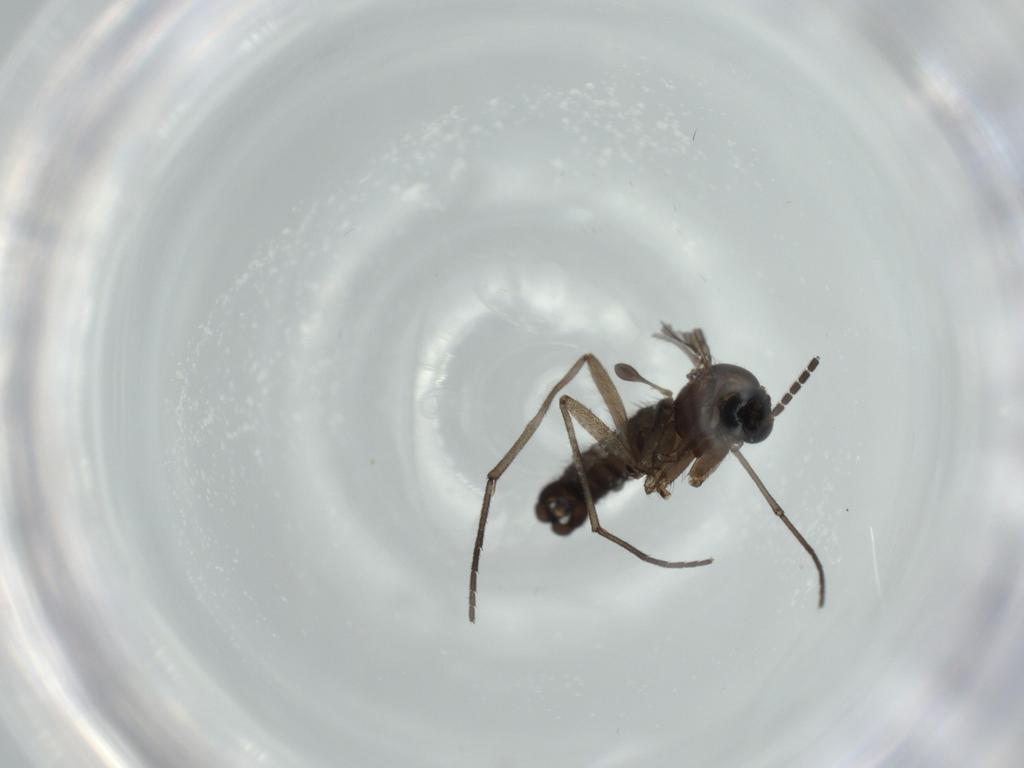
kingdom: Animalia
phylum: Arthropoda
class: Insecta
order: Diptera
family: Sciaridae
